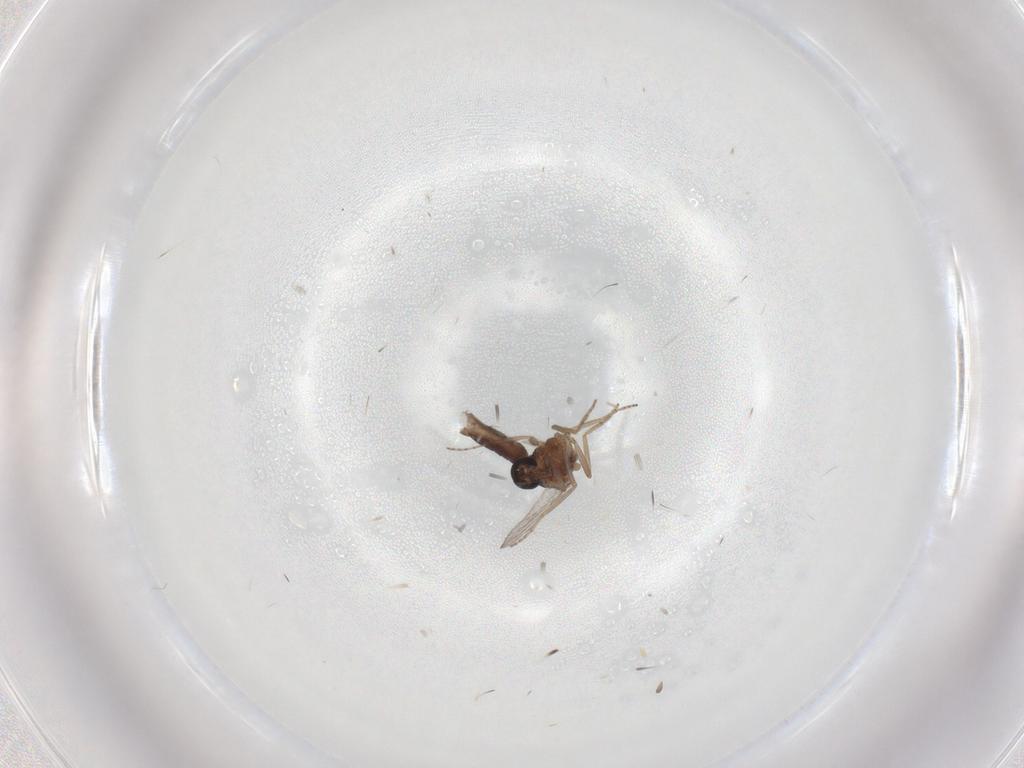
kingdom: Animalia
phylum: Arthropoda
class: Insecta
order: Diptera
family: Ceratopogonidae
